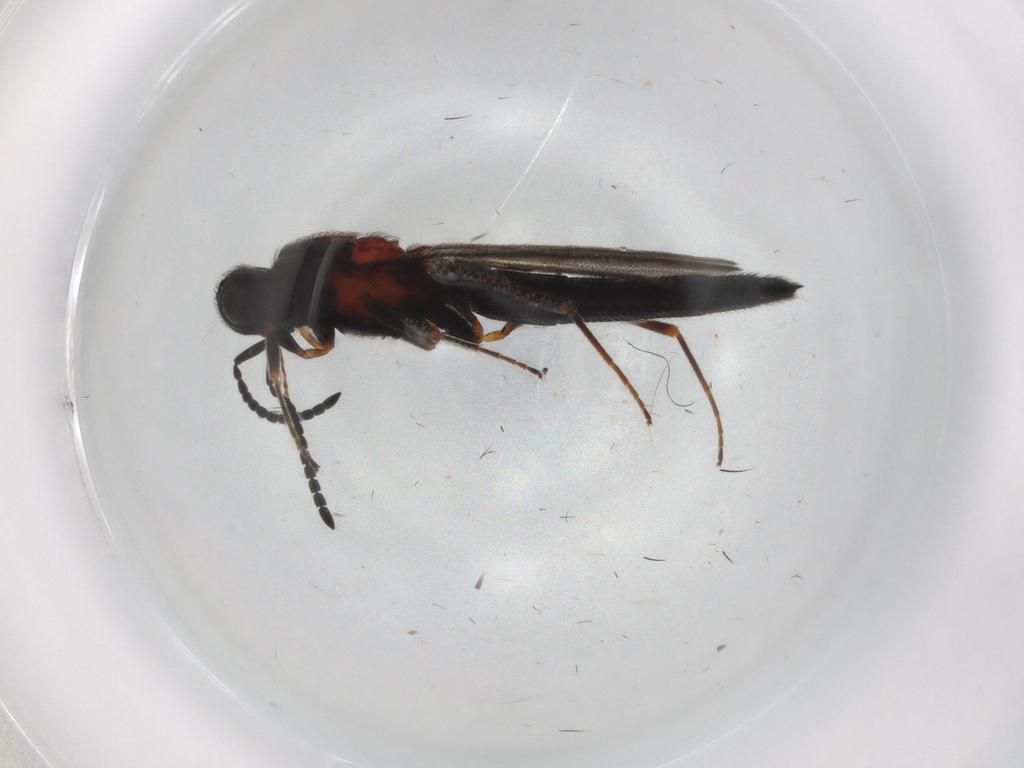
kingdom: Animalia
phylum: Arthropoda
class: Insecta
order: Hymenoptera
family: Scelionidae
